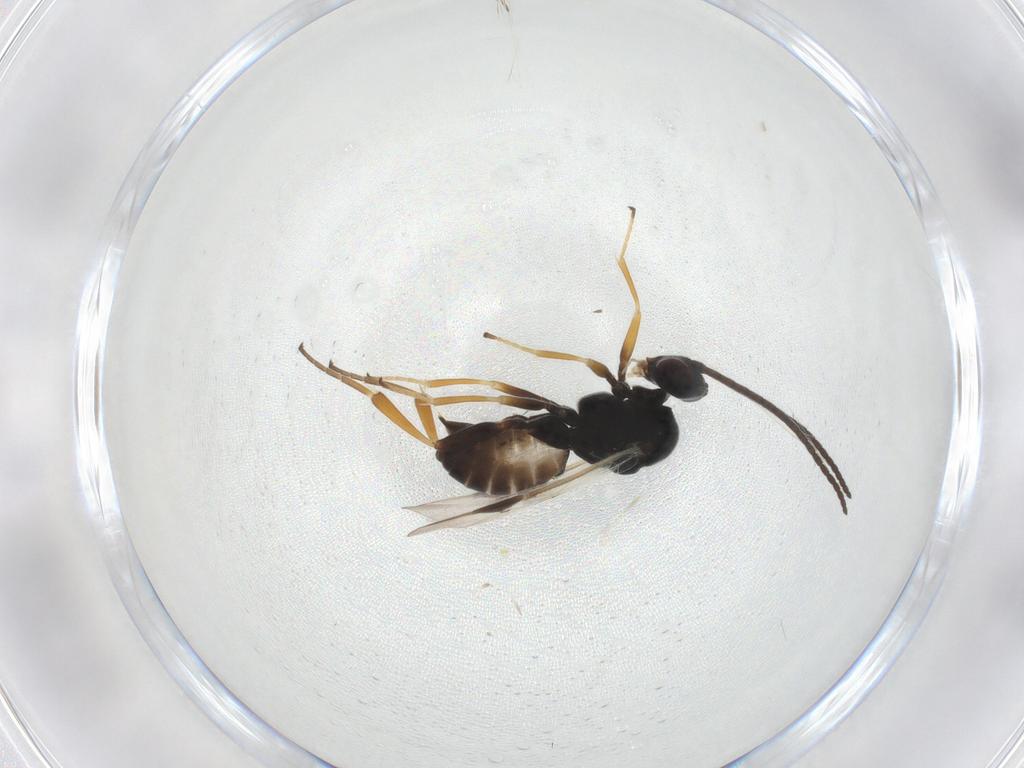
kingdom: Animalia
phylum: Arthropoda
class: Insecta
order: Hymenoptera
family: Braconidae
